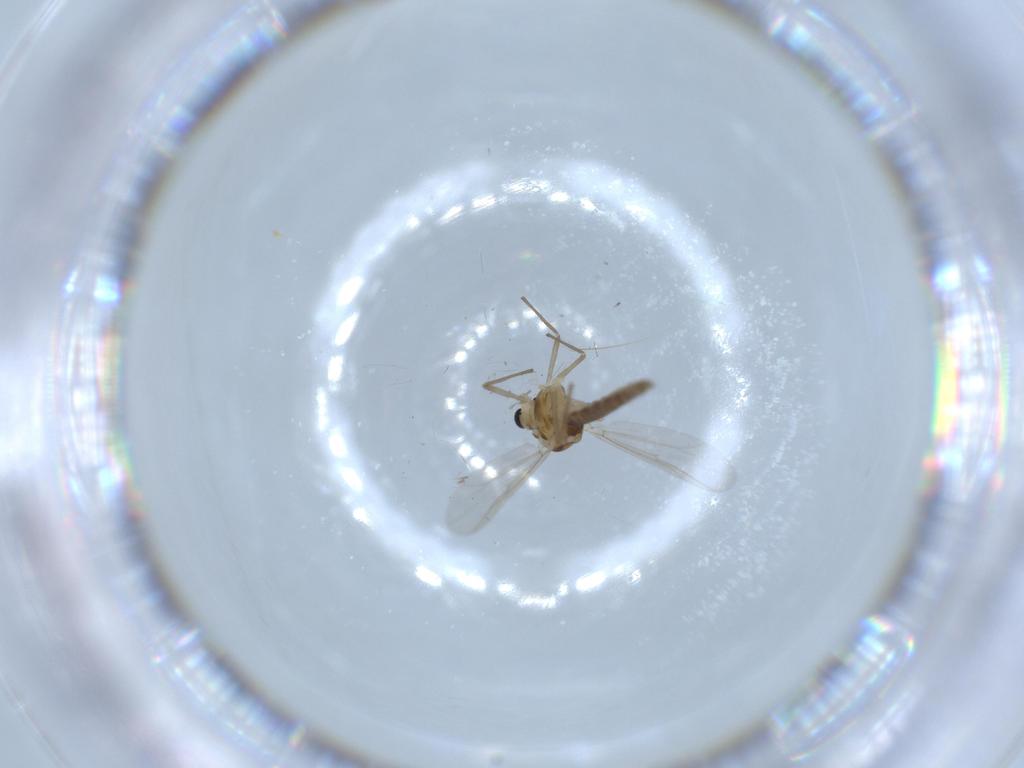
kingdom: Animalia
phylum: Arthropoda
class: Insecta
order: Diptera
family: Chironomidae
